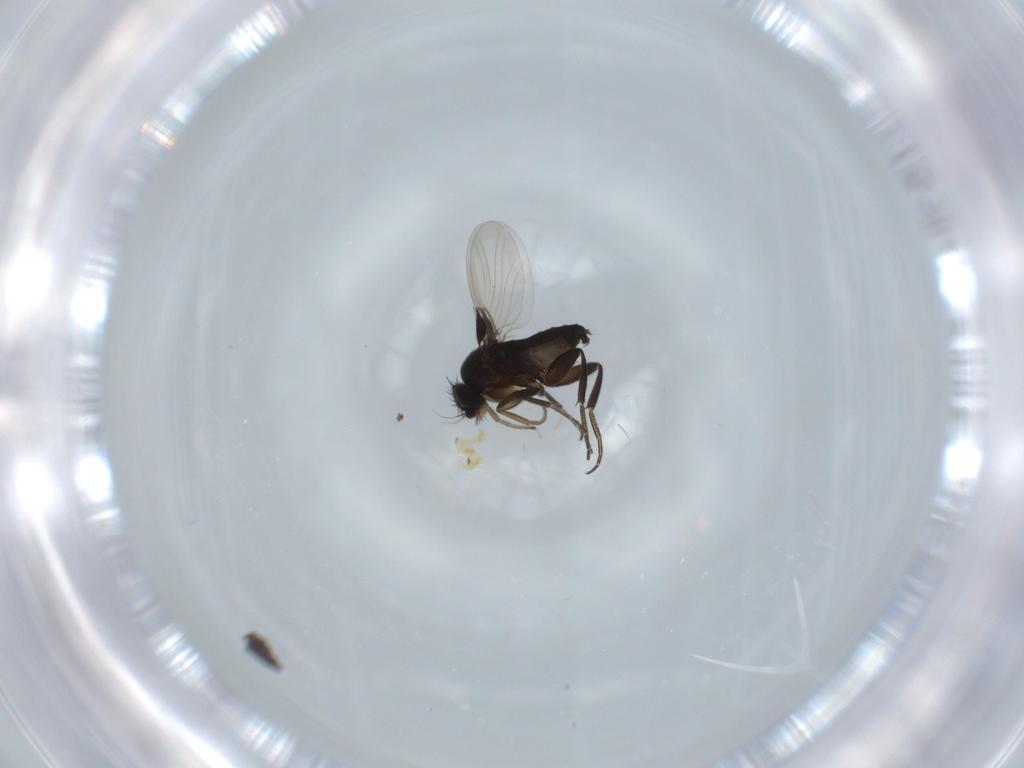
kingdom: Animalia
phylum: Arthropoda
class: Insecta
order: Diptera
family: Phoridae
